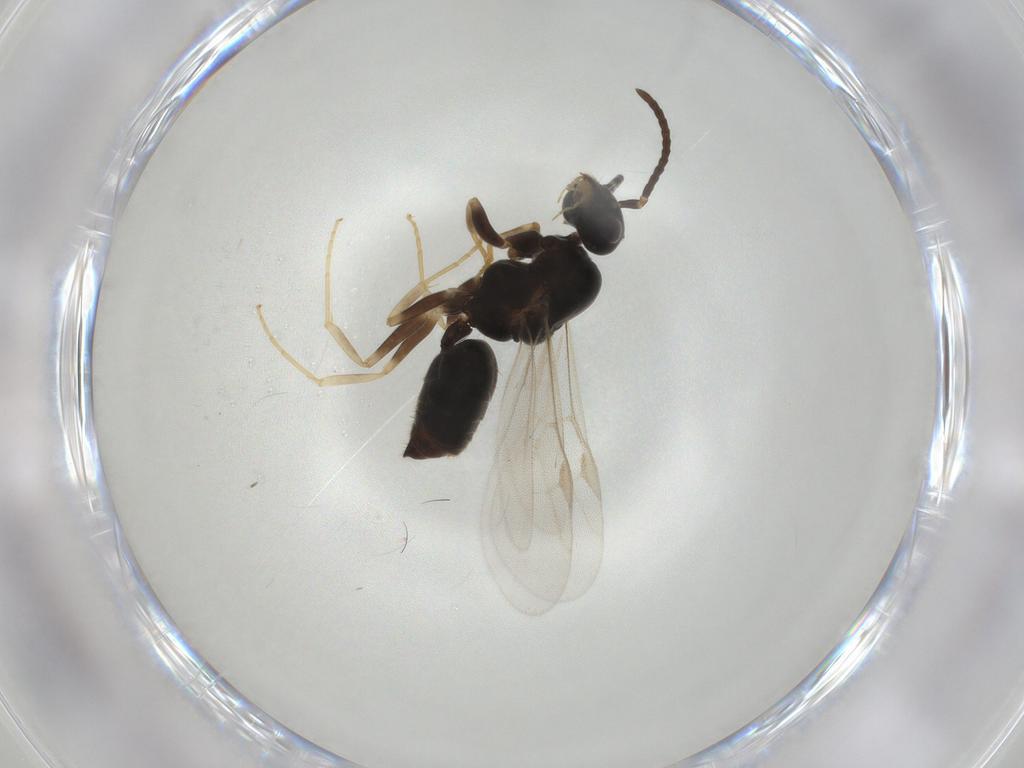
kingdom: Animalia
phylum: Arthropoda
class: Insecta
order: Hymenoptera
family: Formicidae
